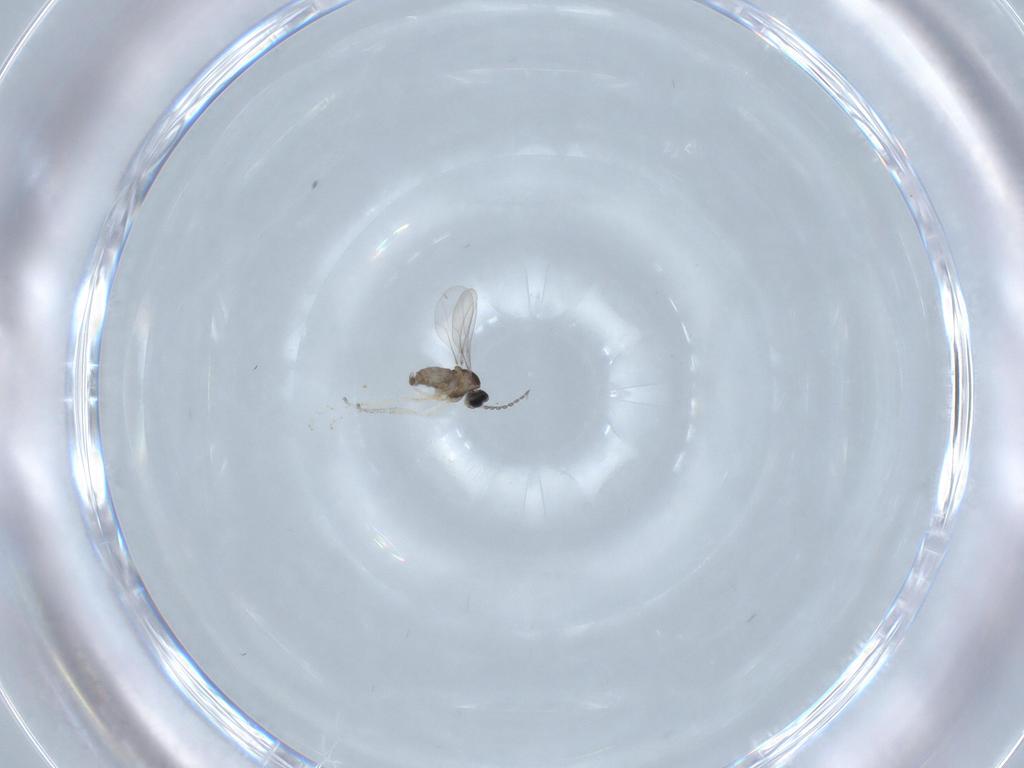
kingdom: Animalia
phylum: Arthropoda
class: Insecta
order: Diptera
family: Cecidomyiidae
